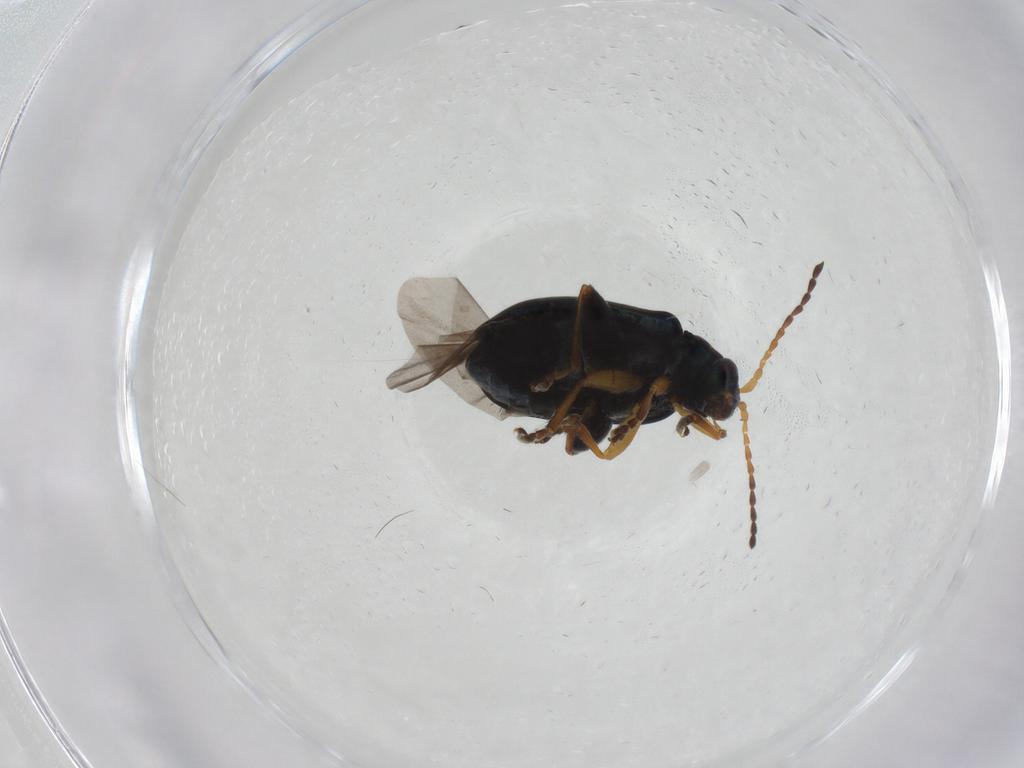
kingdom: Animalia
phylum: Arthropoda
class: Insecta
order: Coleoptera
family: Chrysomelidae
